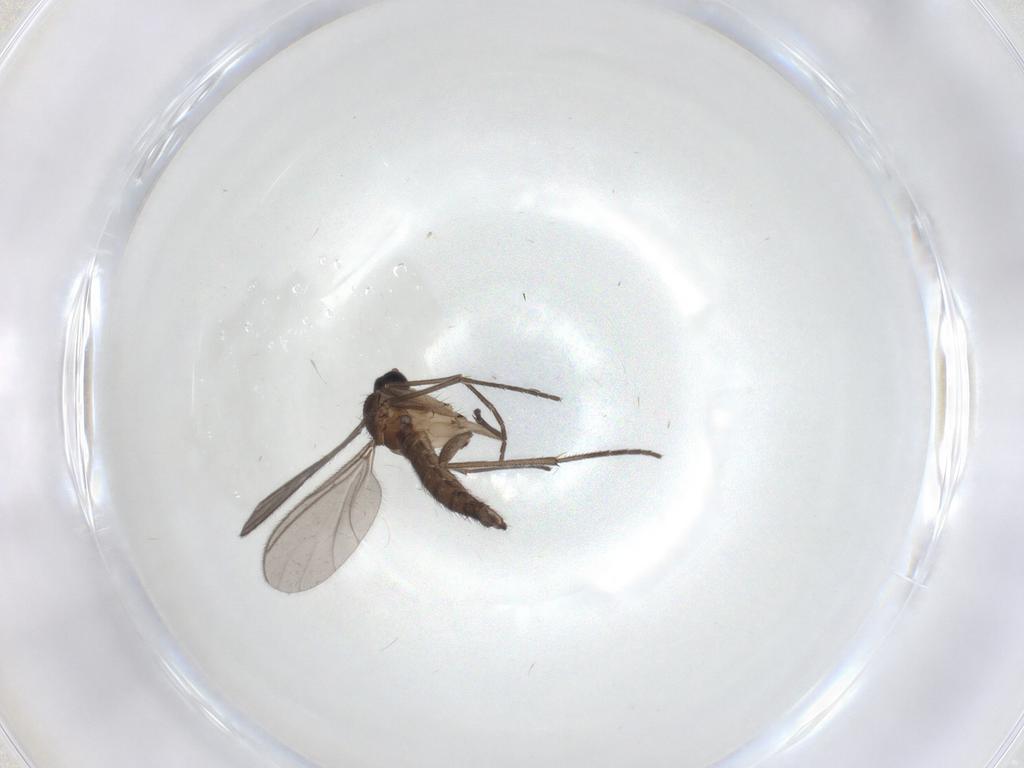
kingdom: Animalia
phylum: Arthropoda
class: Insecta
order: Diptera
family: Sciaridae
